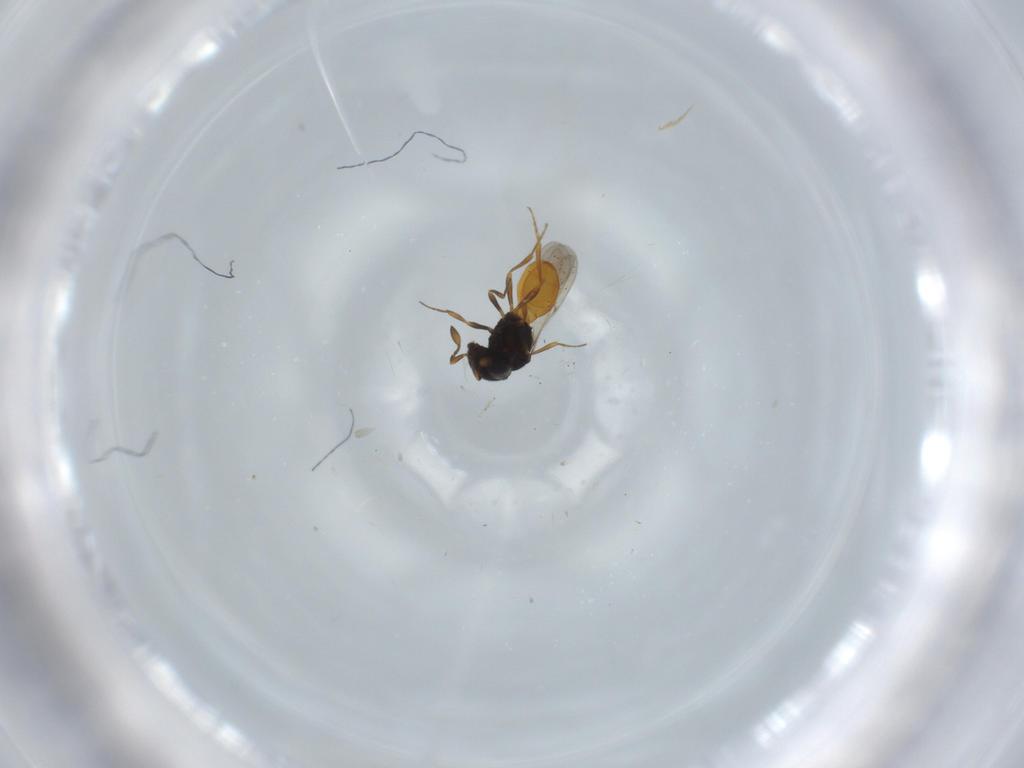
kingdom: Animalia
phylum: Arthropoda
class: Insecta
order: Hymenoptera
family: Scelionidae
